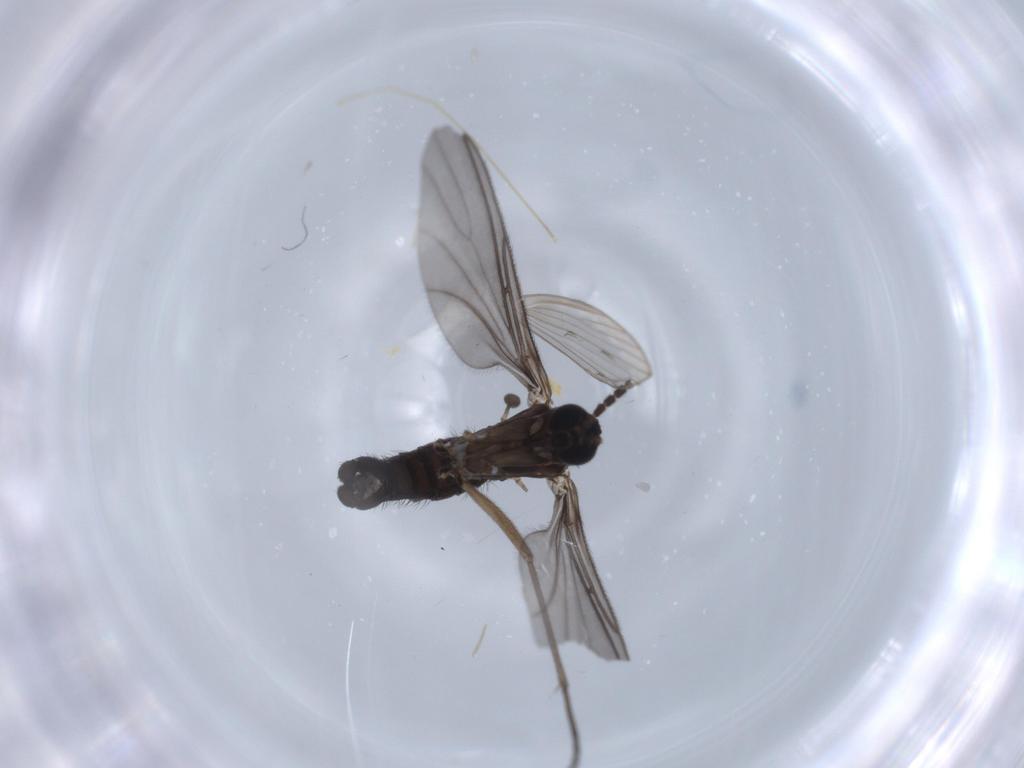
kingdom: Animalia
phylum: Arthropoda
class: Insecta
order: Diptera
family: Sciaridae
